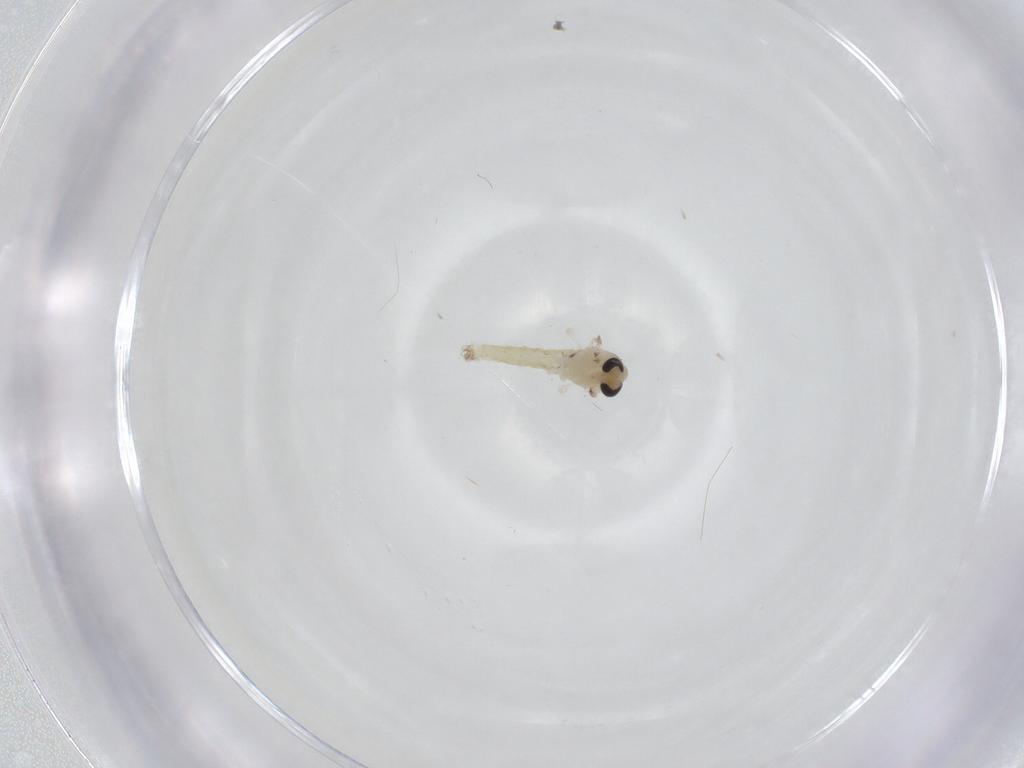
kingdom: Animalia
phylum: Arthropoda
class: Insecta
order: Diptera
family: Chironomidae
